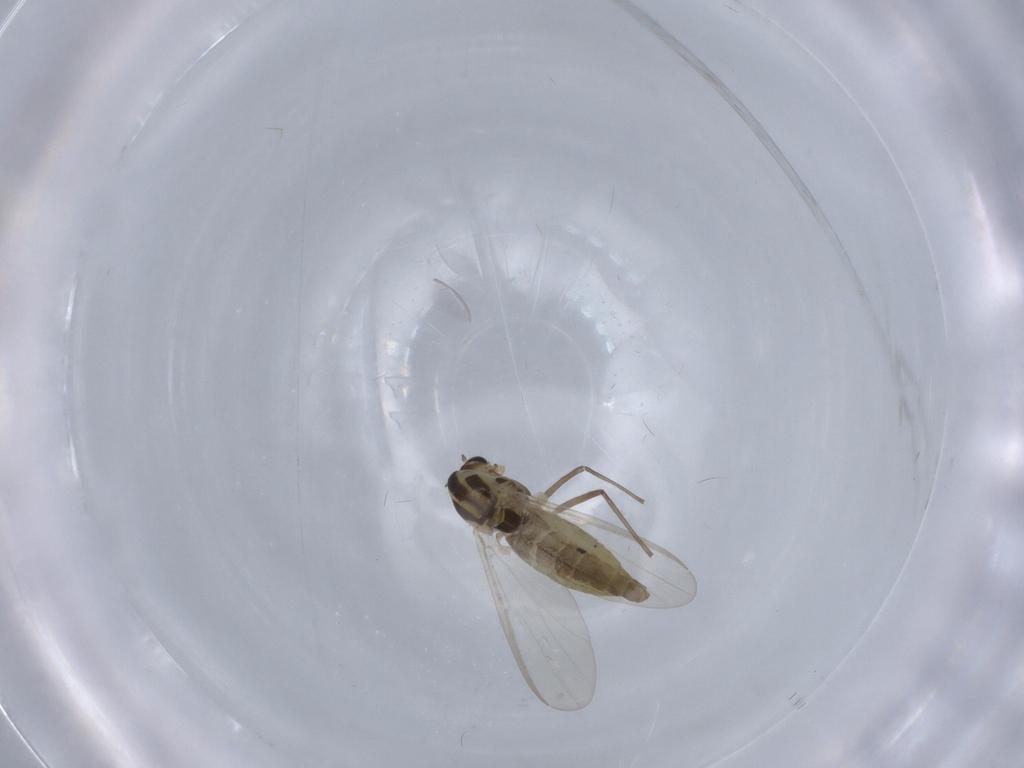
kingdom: Animalia
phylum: Arthropoda
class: Insecta
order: Diptera
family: Chironomidae
